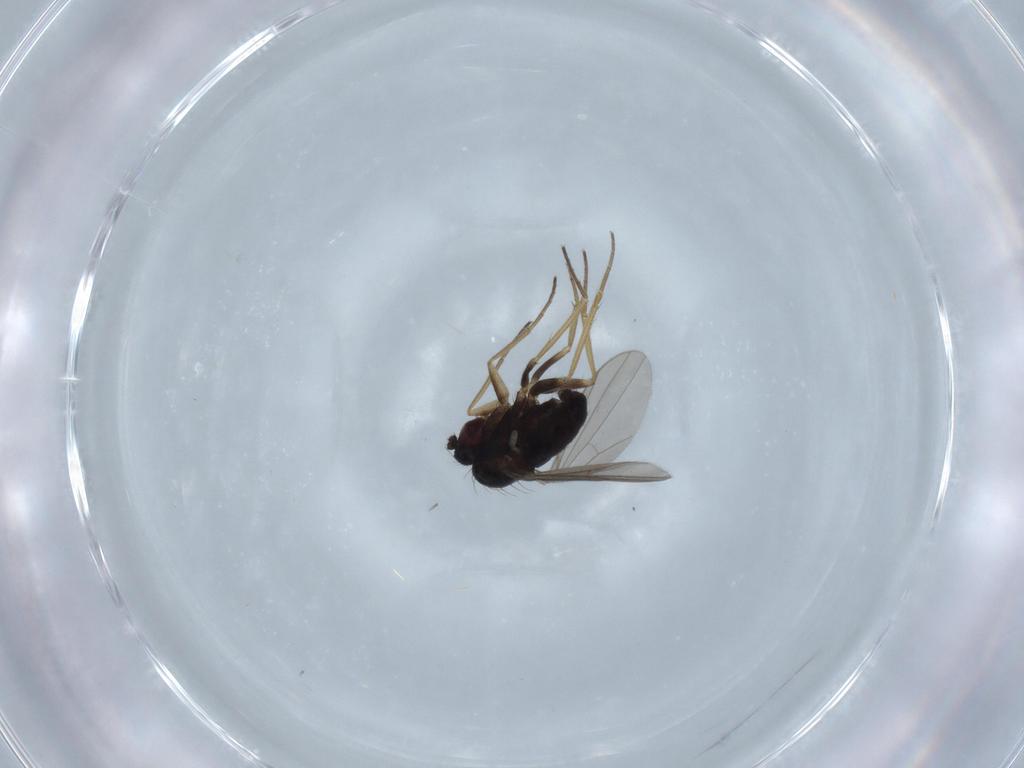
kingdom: Animalia
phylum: Arthropoda
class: Insecta
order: Diptera
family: Dolichopodidae
